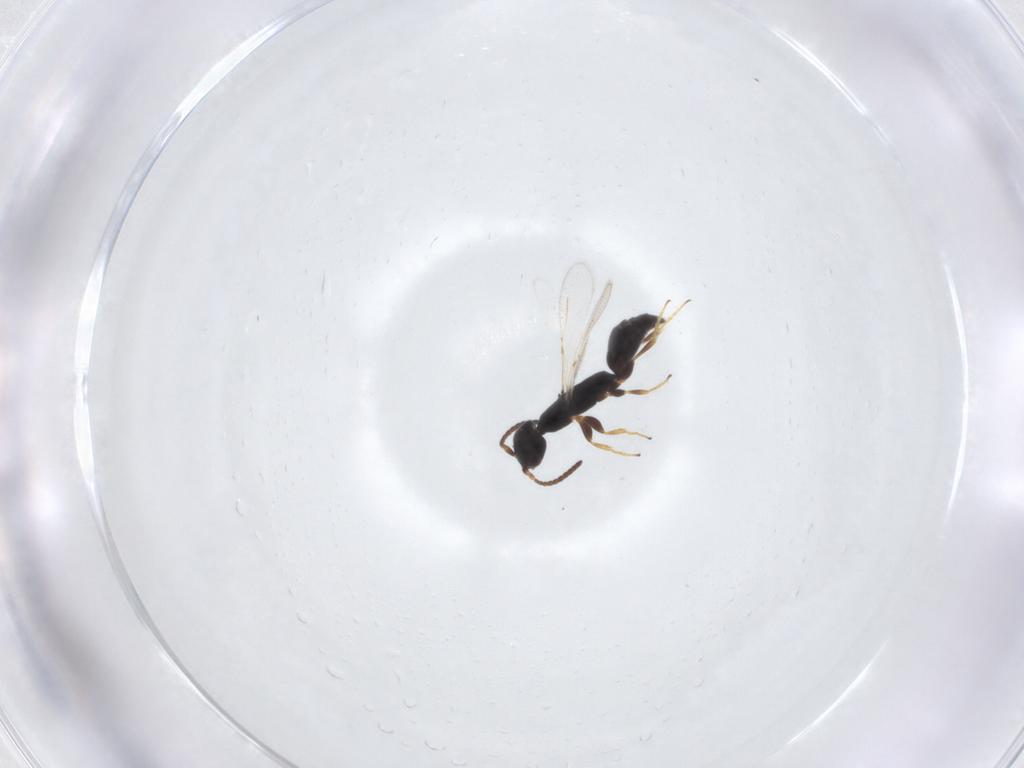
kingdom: Animalia
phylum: Arthropoda
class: Insecta
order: Hymenoptera
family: Bethylidae
